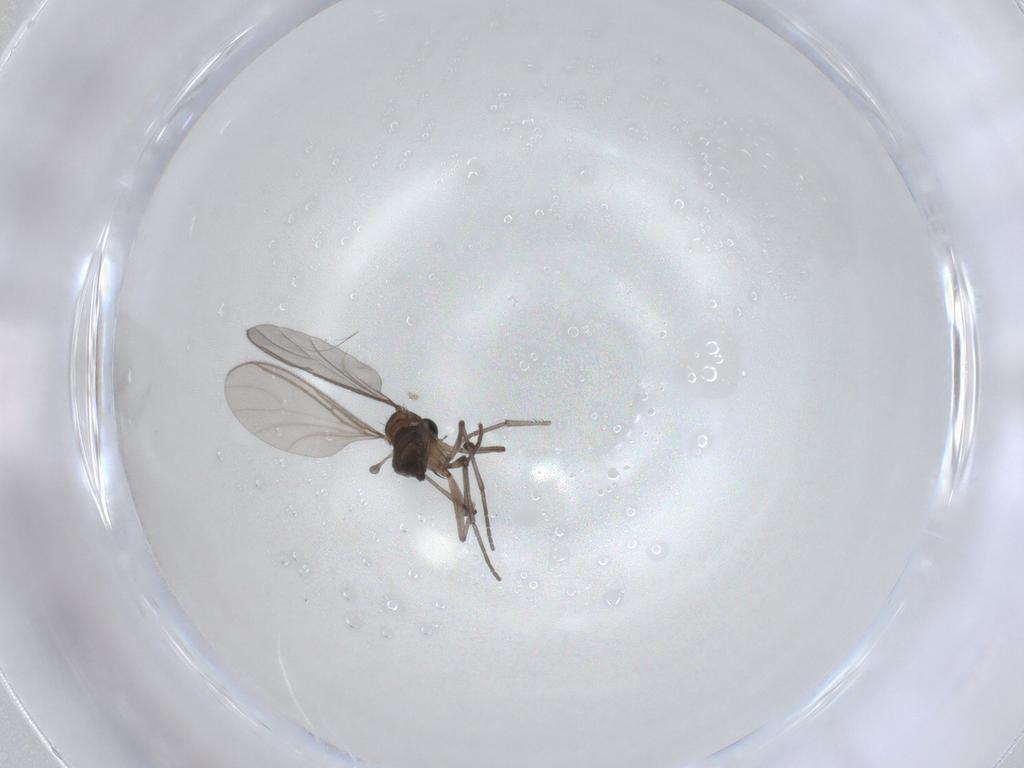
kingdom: Animalia
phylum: Arthropoda
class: Insecta
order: Diptera
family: Sciaridae
